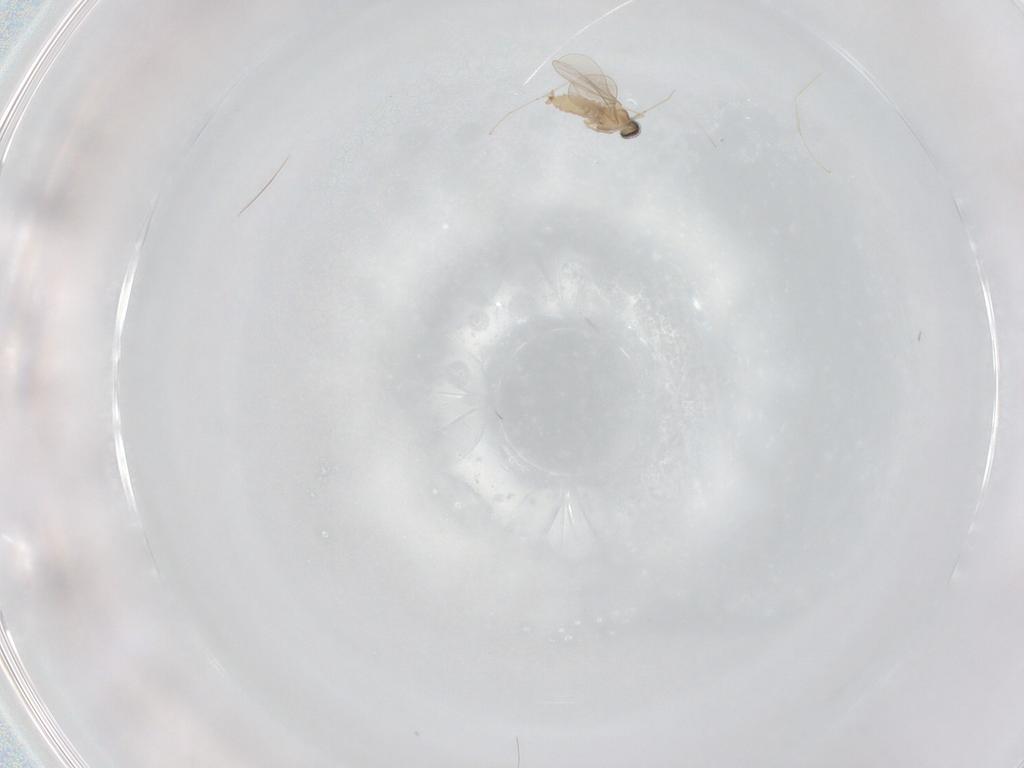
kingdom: Animalia
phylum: Arthropoda
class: Insecta
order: Diptera
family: Cecidomyiidae
